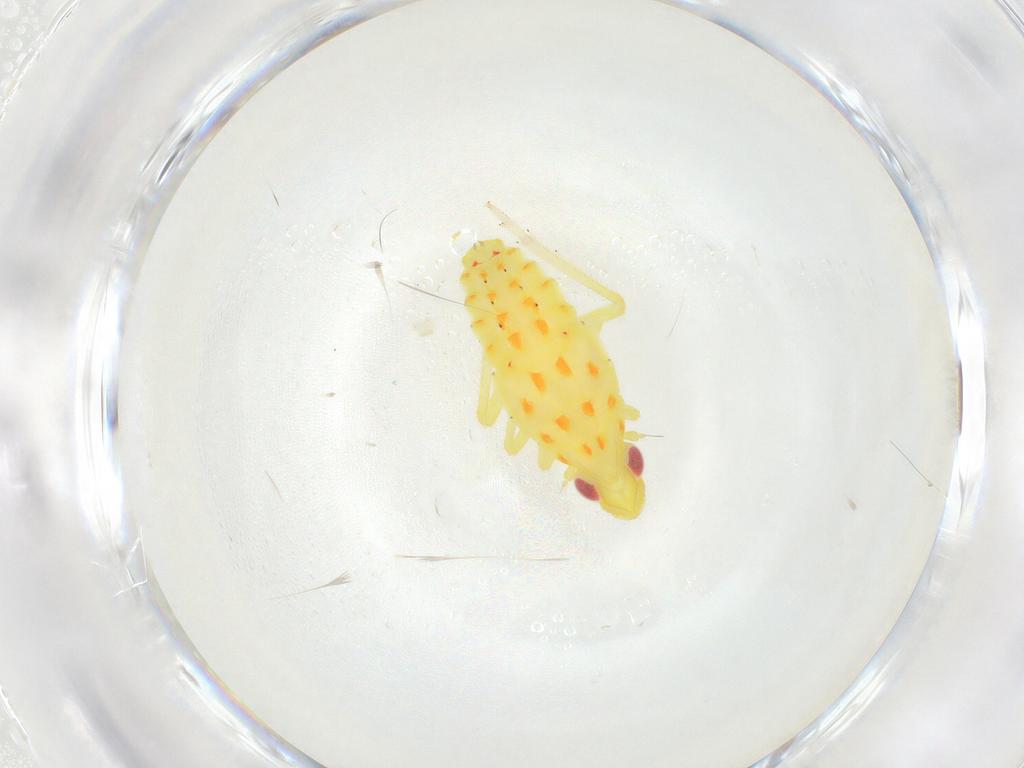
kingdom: Animalia
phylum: Arthropoda
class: Insecta
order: Hemiptera
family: Tropiduchidae
